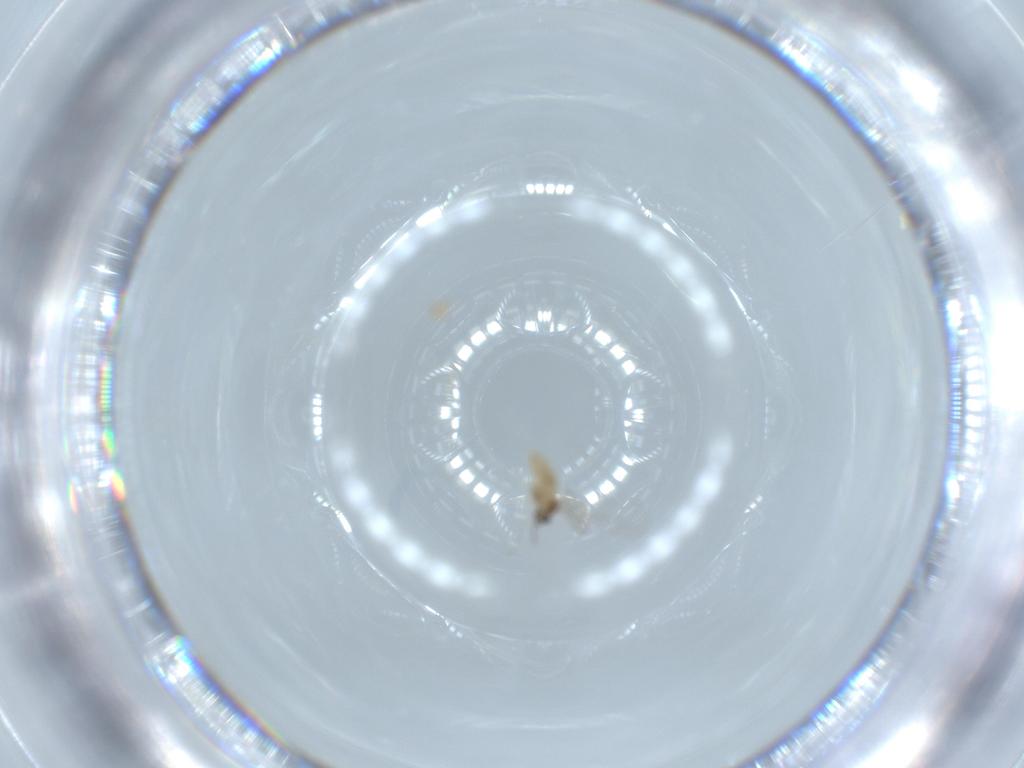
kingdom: Animalia
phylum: Arthropoda
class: Insecta
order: Diptera
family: Cecidomyiidae
